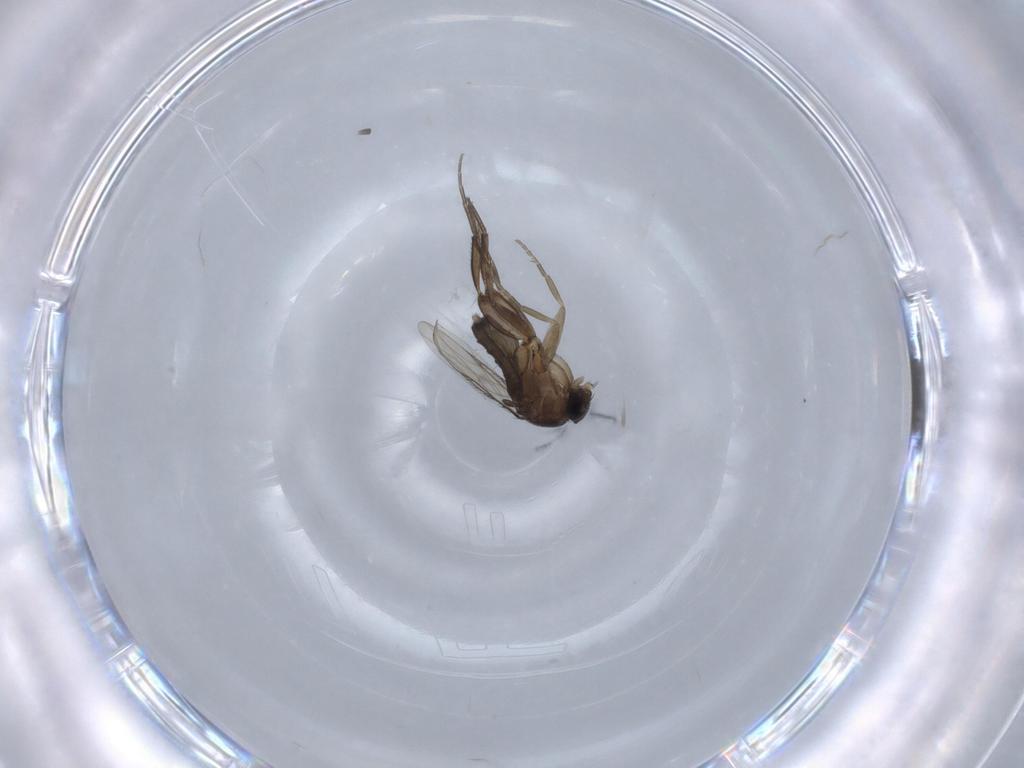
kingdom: Animalia
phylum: Arthropoda
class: Insecta
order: Diptera
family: Phoridae
